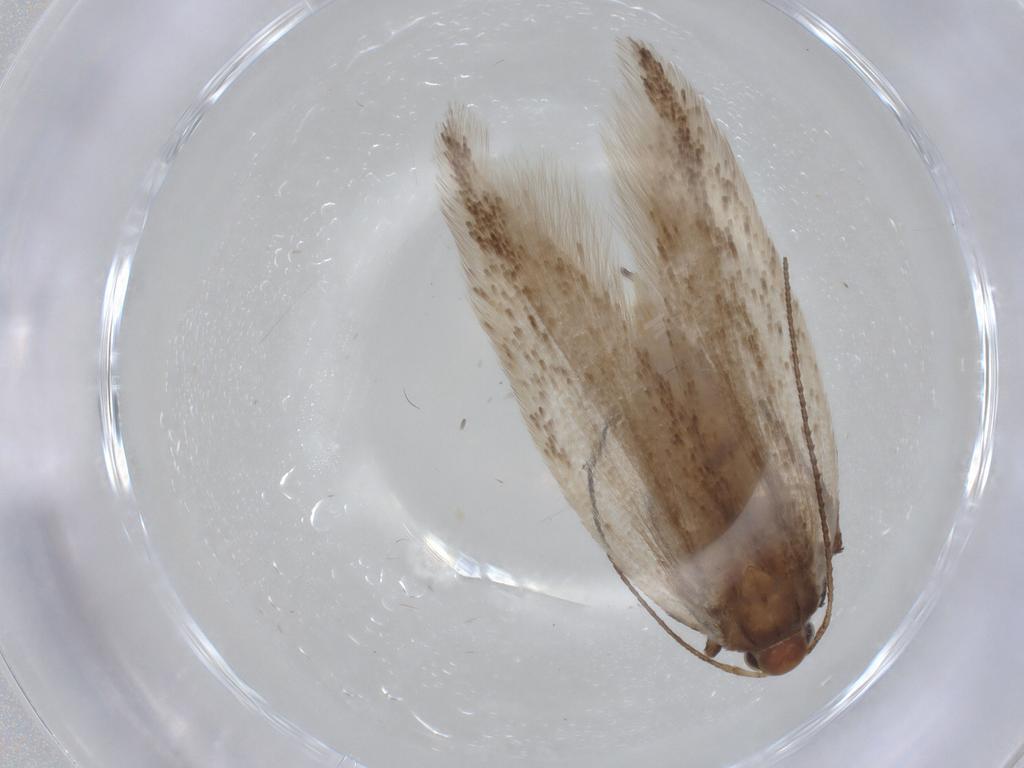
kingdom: Animalia
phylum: Arthropoda
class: Insecta
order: Lepidoptera
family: Gelechiidae
